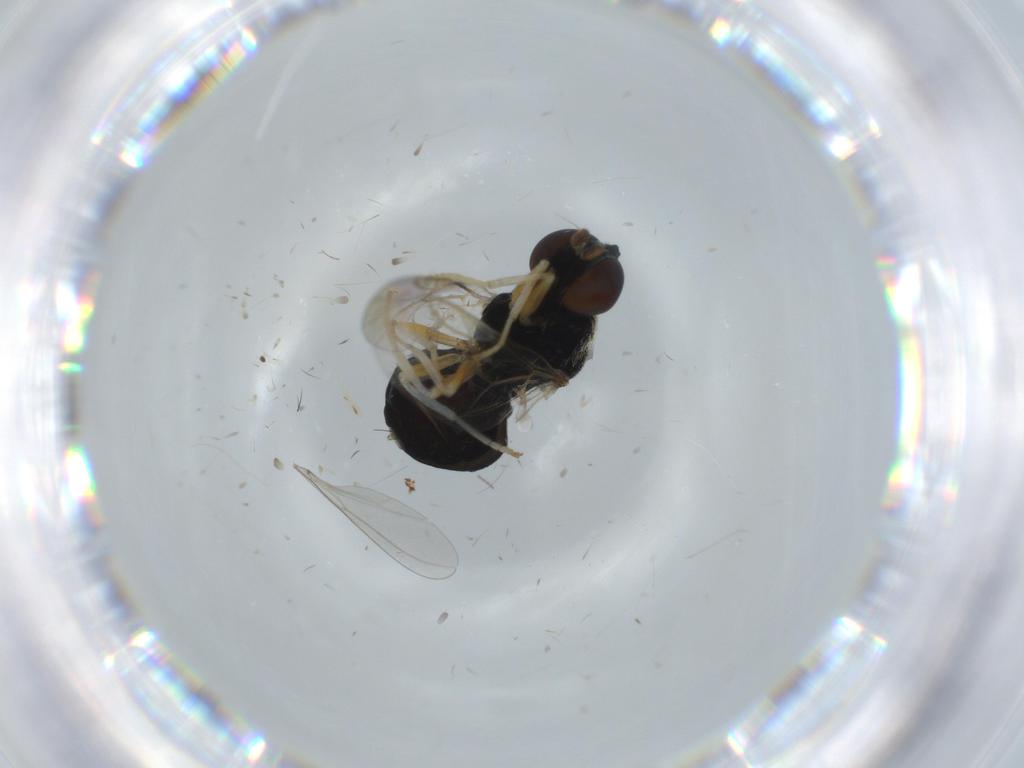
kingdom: Animalia
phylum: Arthropoda
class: Insecta
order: Diptera
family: Stratiomyidae
